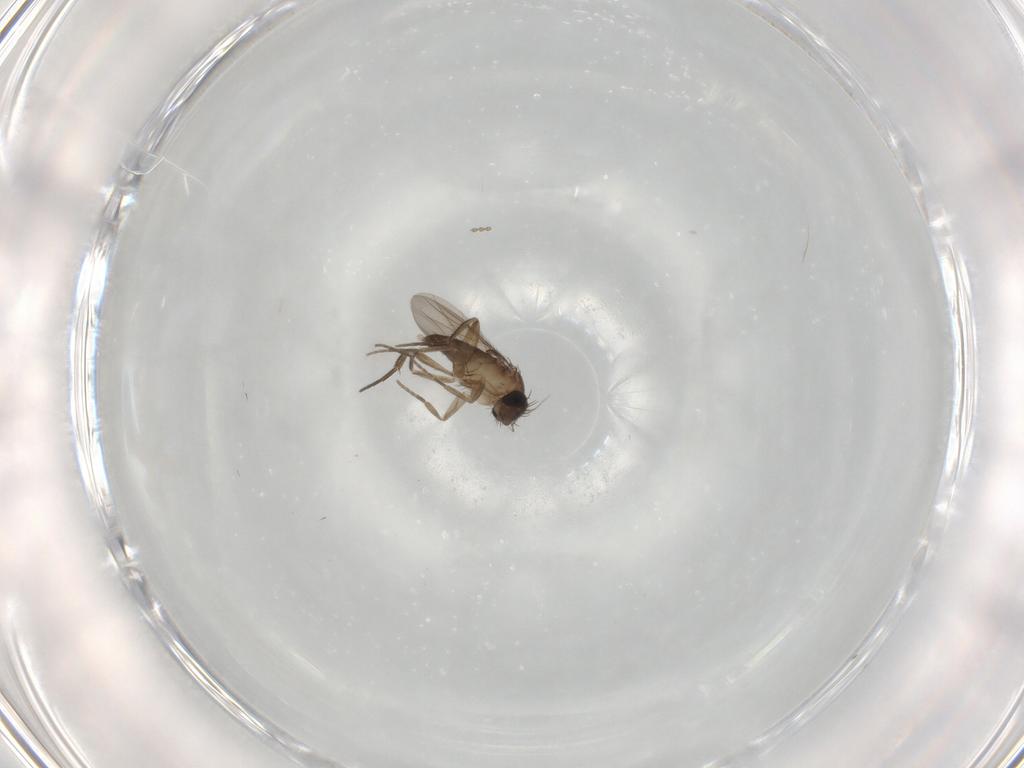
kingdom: Animalia
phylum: Arthropoda
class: Insecta
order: Diptera
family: Phoridae
